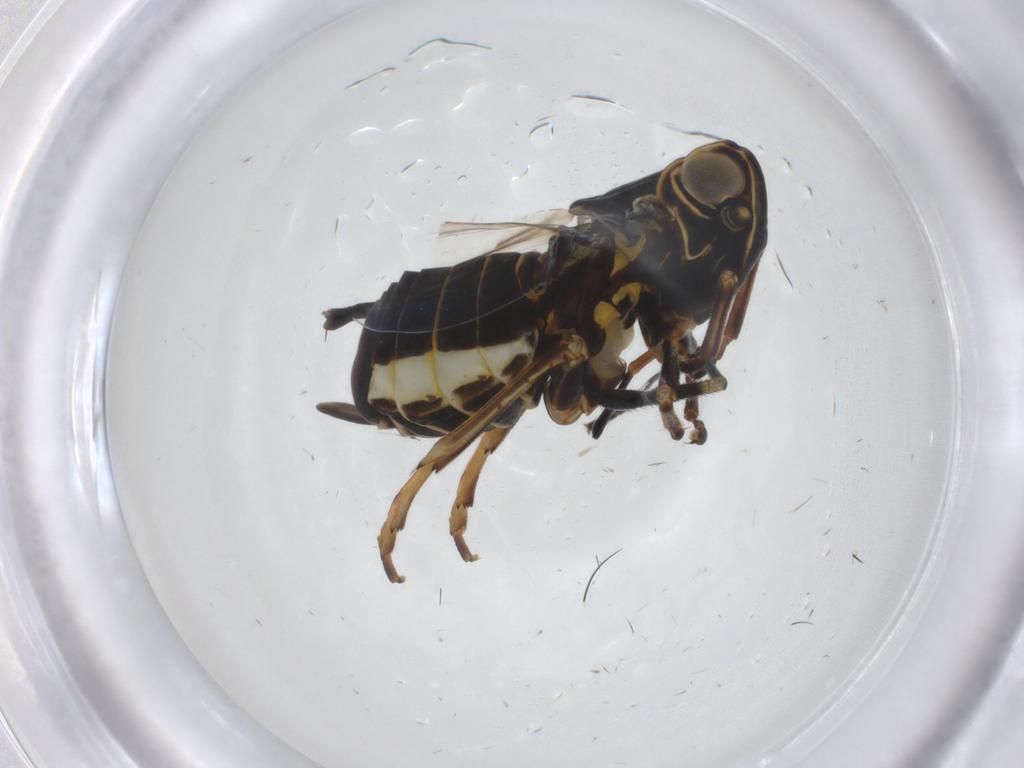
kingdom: Animalia
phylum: Arthropoda
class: Insecta
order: Hemiptera
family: Cixiidae
